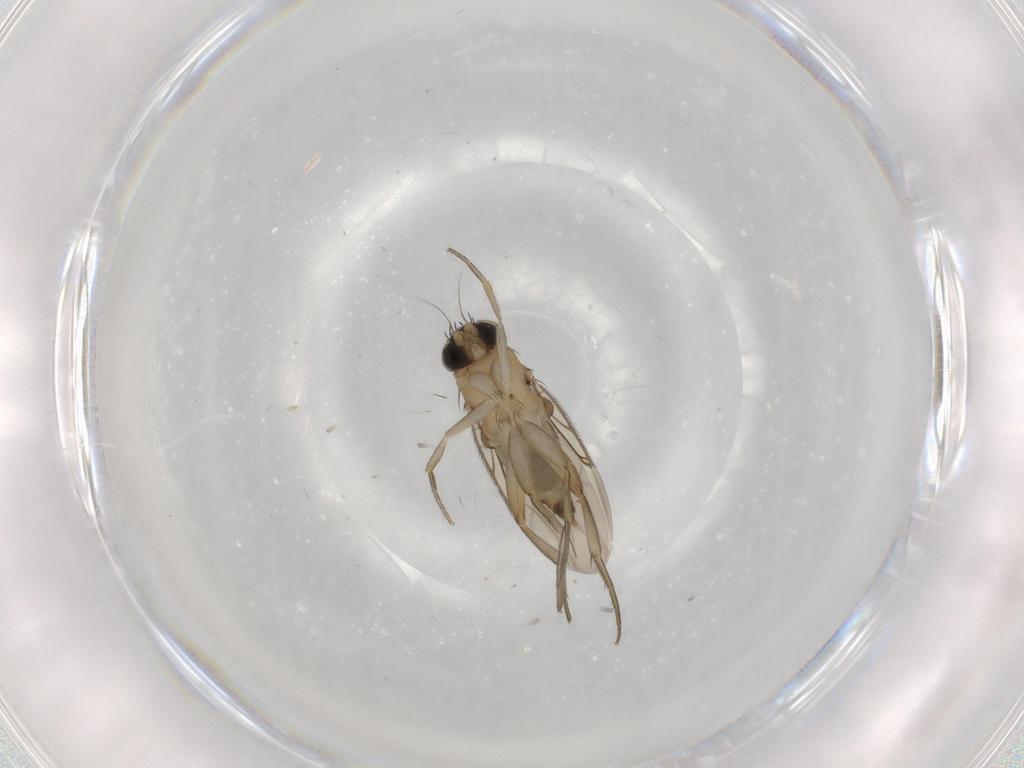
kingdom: Animalia
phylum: Arthropoda
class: Insecta
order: Diptera
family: Phoridae
